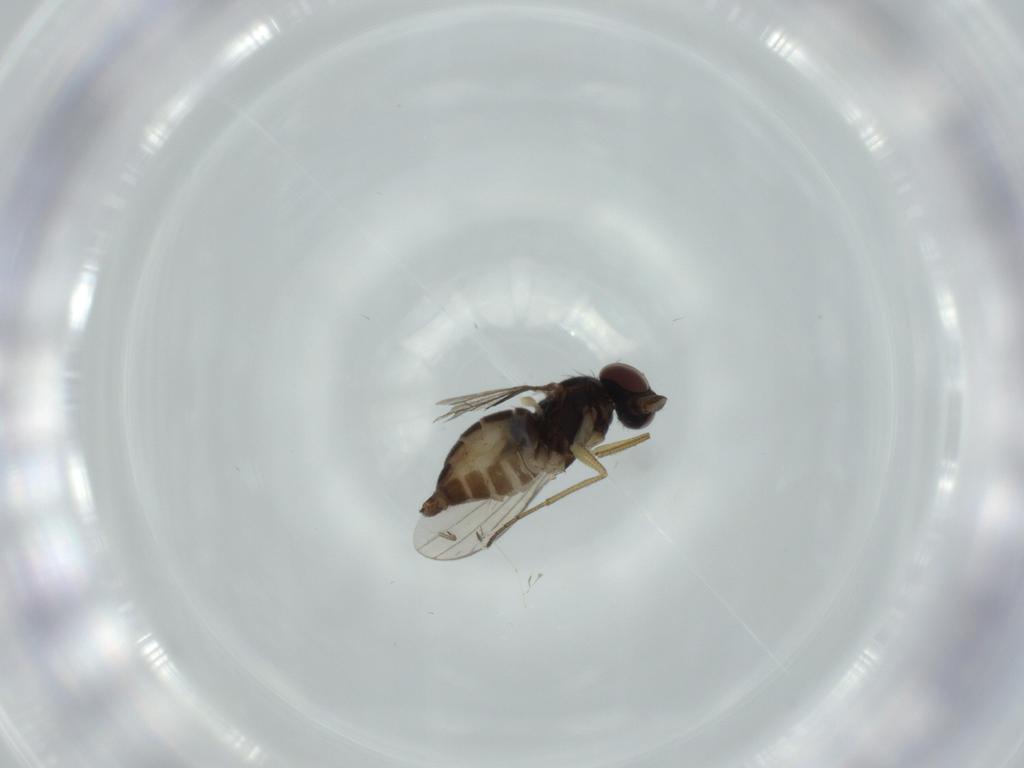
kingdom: Animalia
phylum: Arthropoda
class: Insecta
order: Diptera
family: Dolichopodidae
